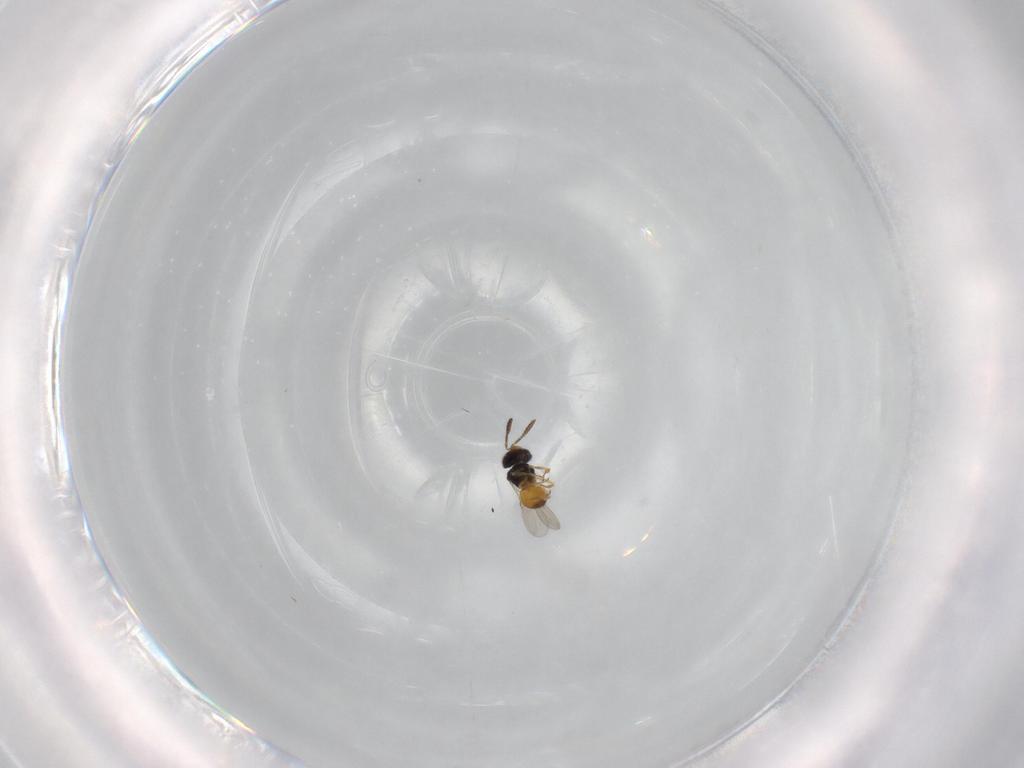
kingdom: Animalia
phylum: Arthropoda
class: Insecta
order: Hymenoptera
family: Scelionidae
